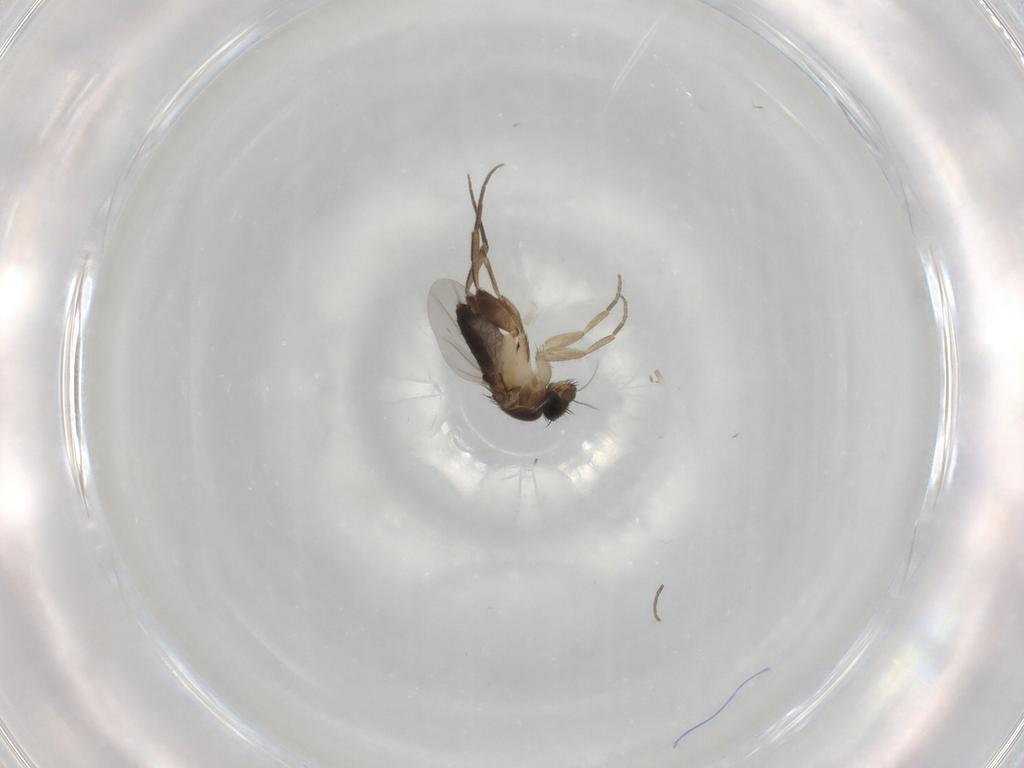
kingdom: Animalia
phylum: Arthropoda
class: Insecta
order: Diptera
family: Phoridae
